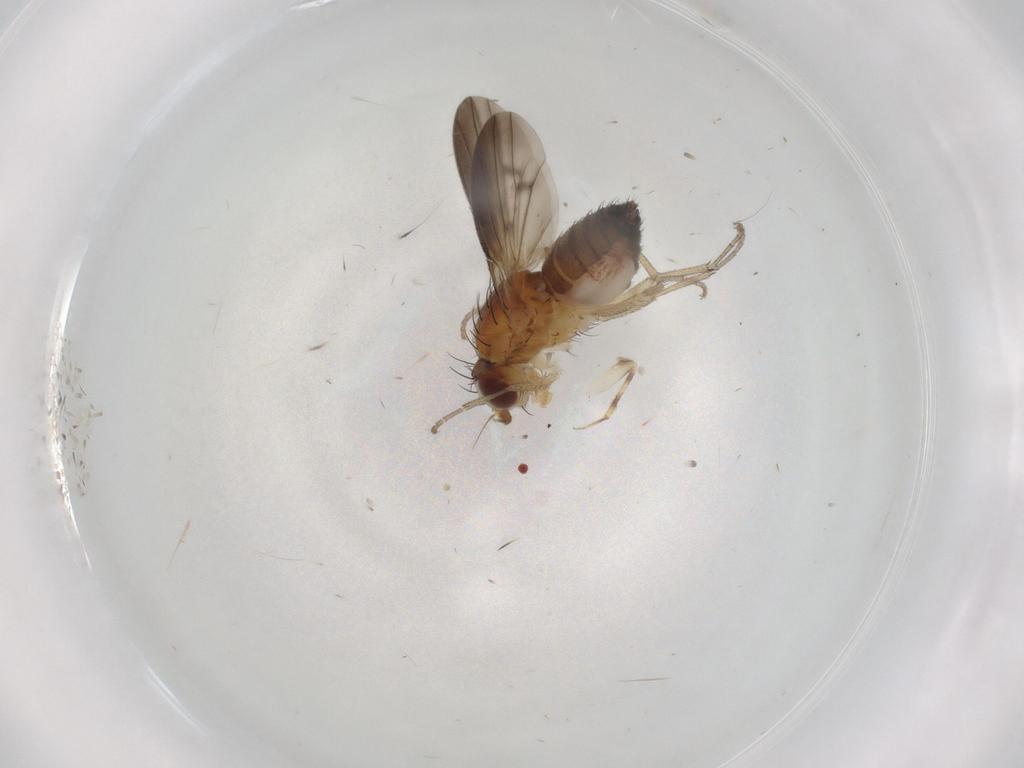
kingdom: Animalia
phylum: Arthropoda
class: Insecta
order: Diptera
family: Heleomyzidae
